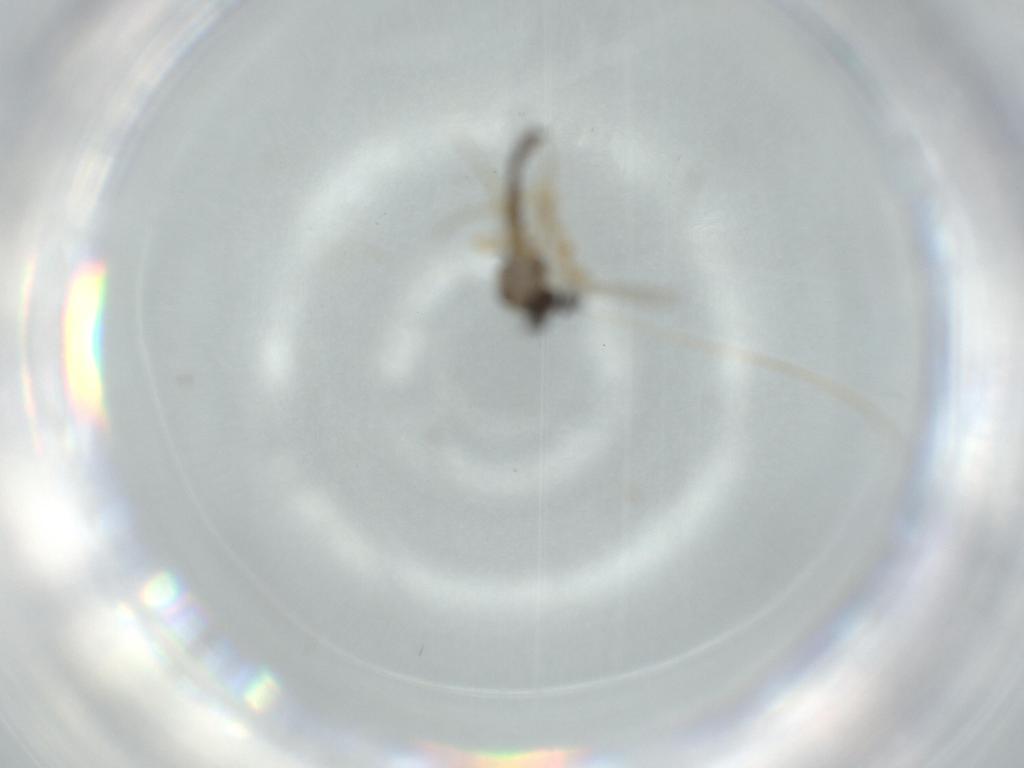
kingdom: Animalia
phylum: Arthropoda
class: Insecta
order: Diptera
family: Ceratopogonidae
